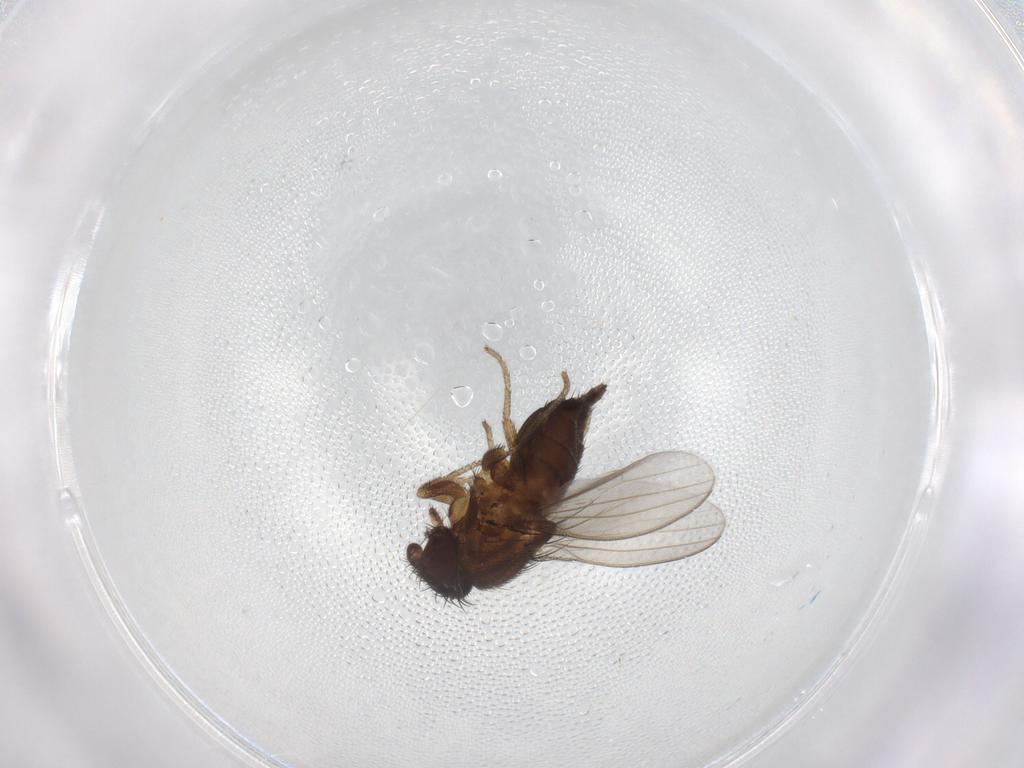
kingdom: Animalia
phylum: Arthropoda
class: Insecta
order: Diptera
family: Milichiidae
